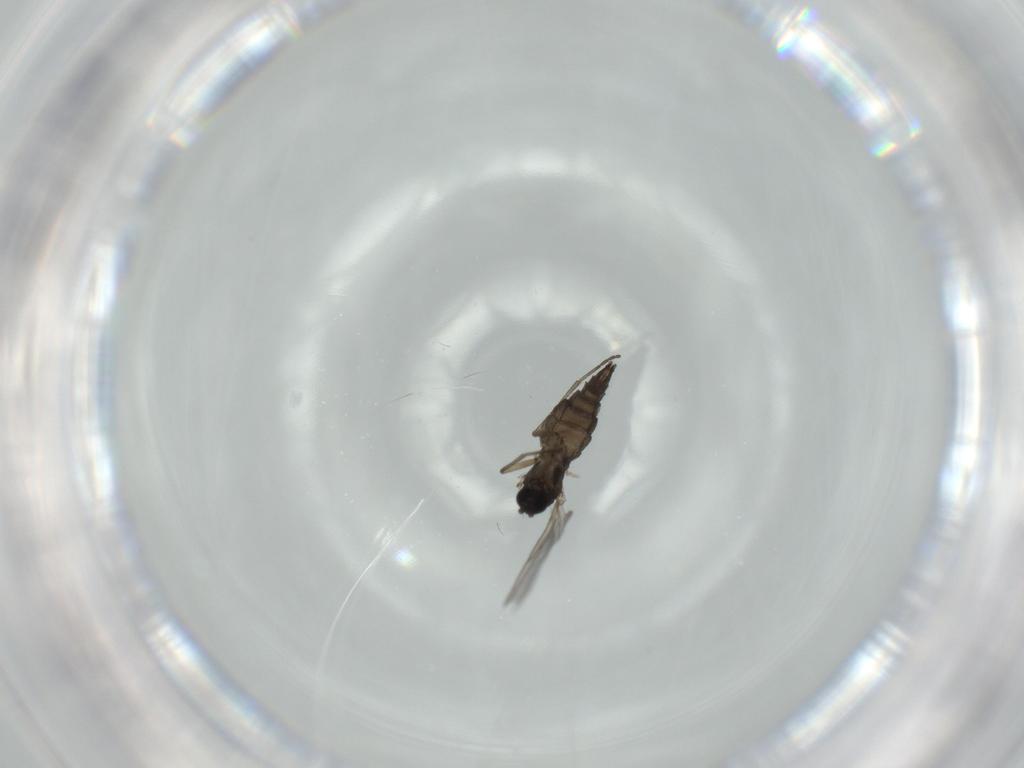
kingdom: Animalia
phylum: Arthropoda
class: Insecta
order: Diptera
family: Sciaridae
